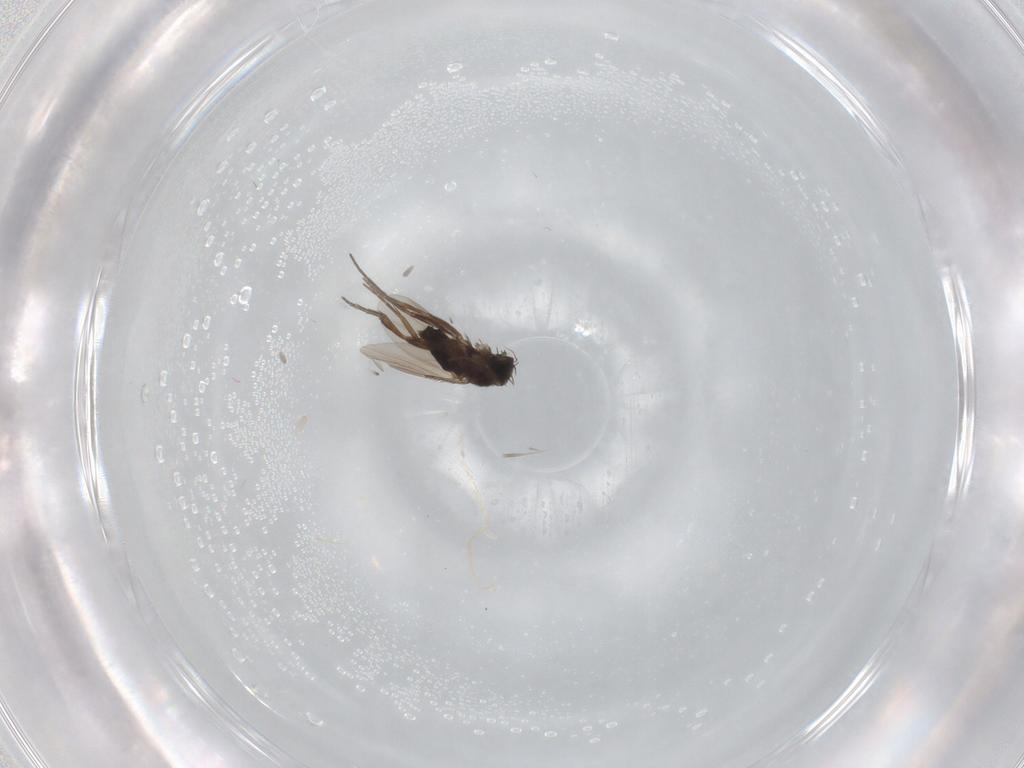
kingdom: Animalia
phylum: Arthropoda
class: Insecta
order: Diptera
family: Phoridae
